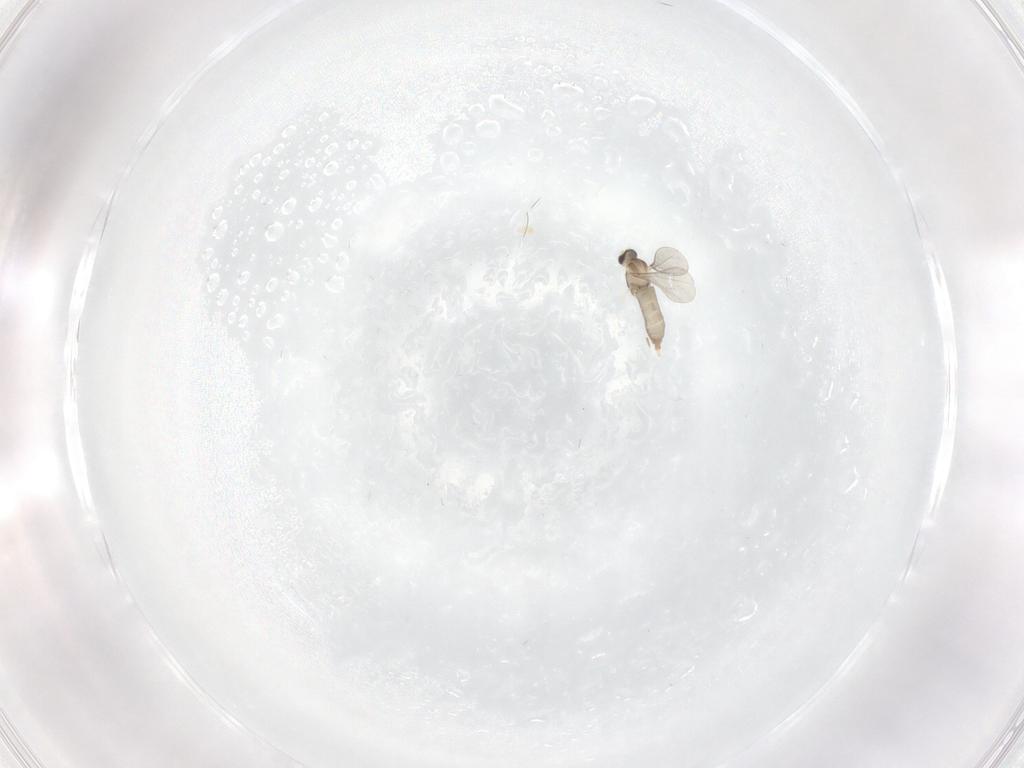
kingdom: Animalia
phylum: Arthropoda
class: Insecta
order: Diptera
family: Cecidomyiidae
